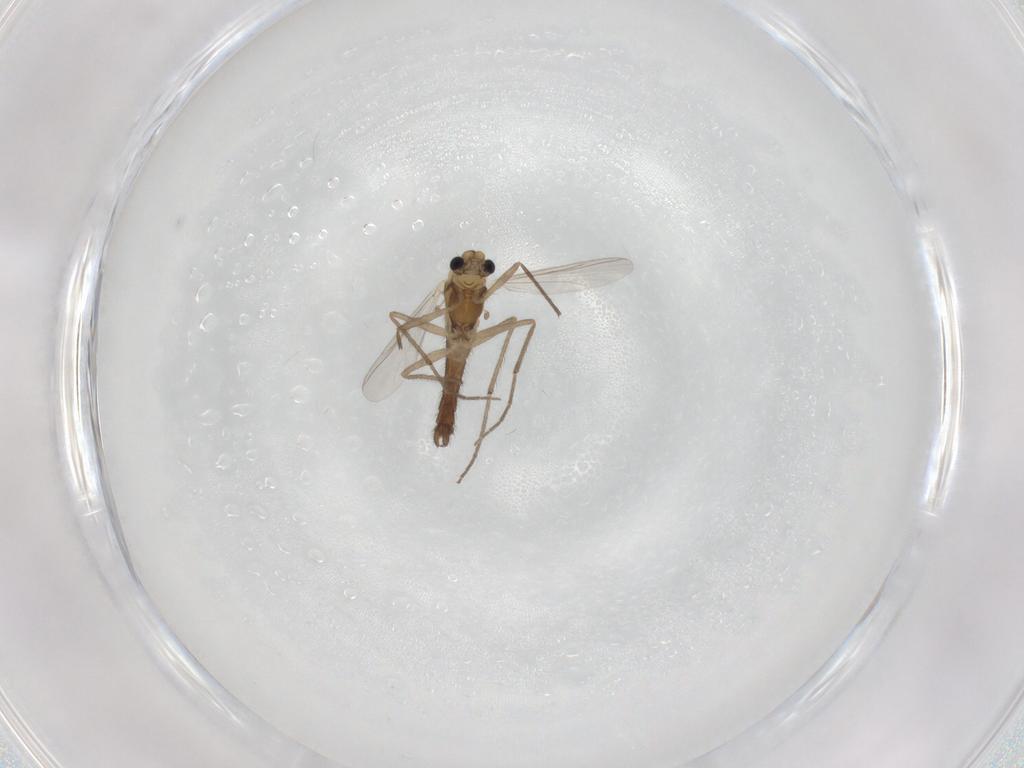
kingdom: Animalia
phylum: Arthropoda
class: Insecta
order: Diptera
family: Chironomidae
